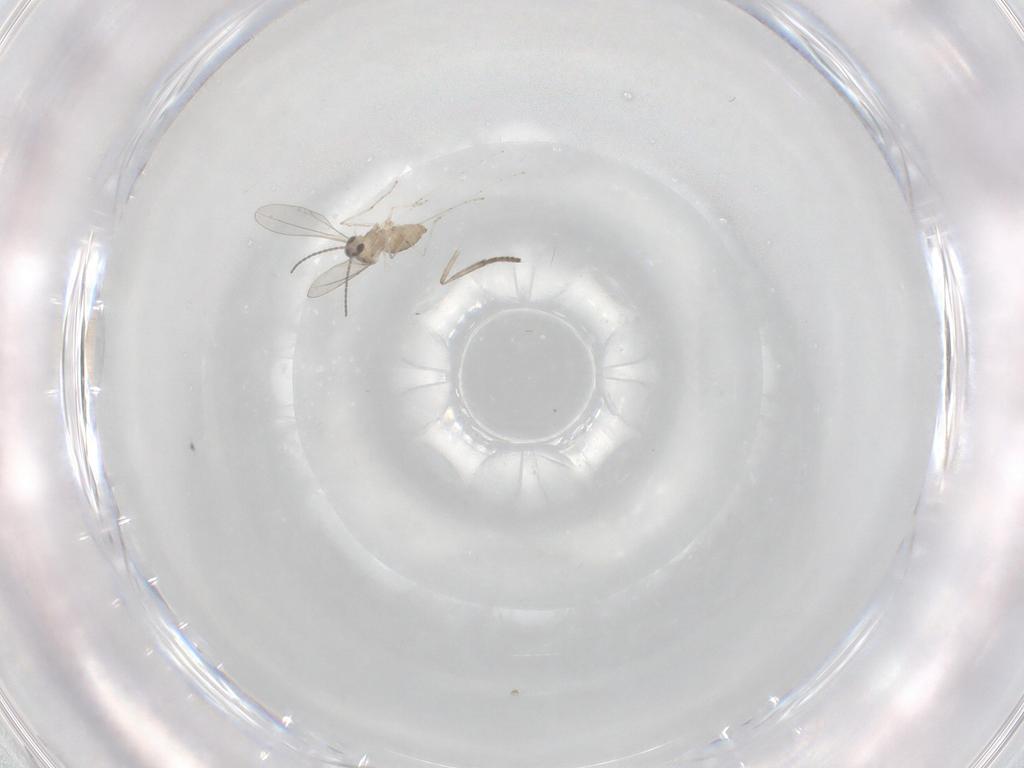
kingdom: Animalia
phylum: Arthropoda
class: Insecta
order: Diptera
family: Cecidomyiidae
